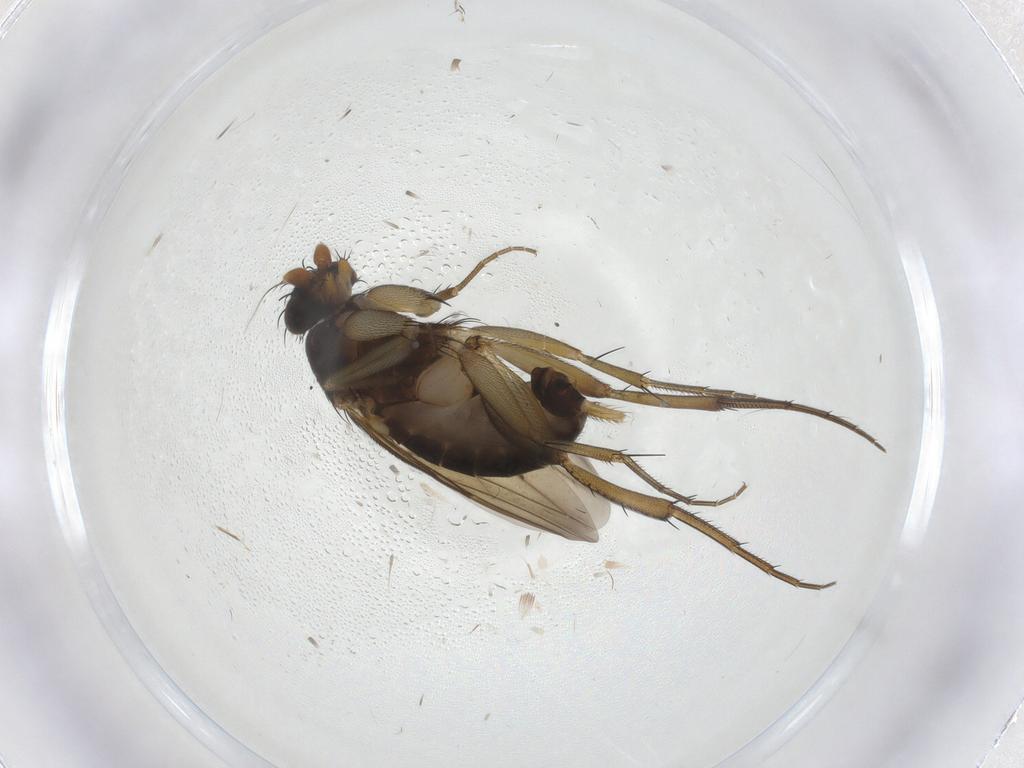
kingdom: Animalia
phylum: Arthropoda
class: Insecta
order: Diptera
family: Phoridae
